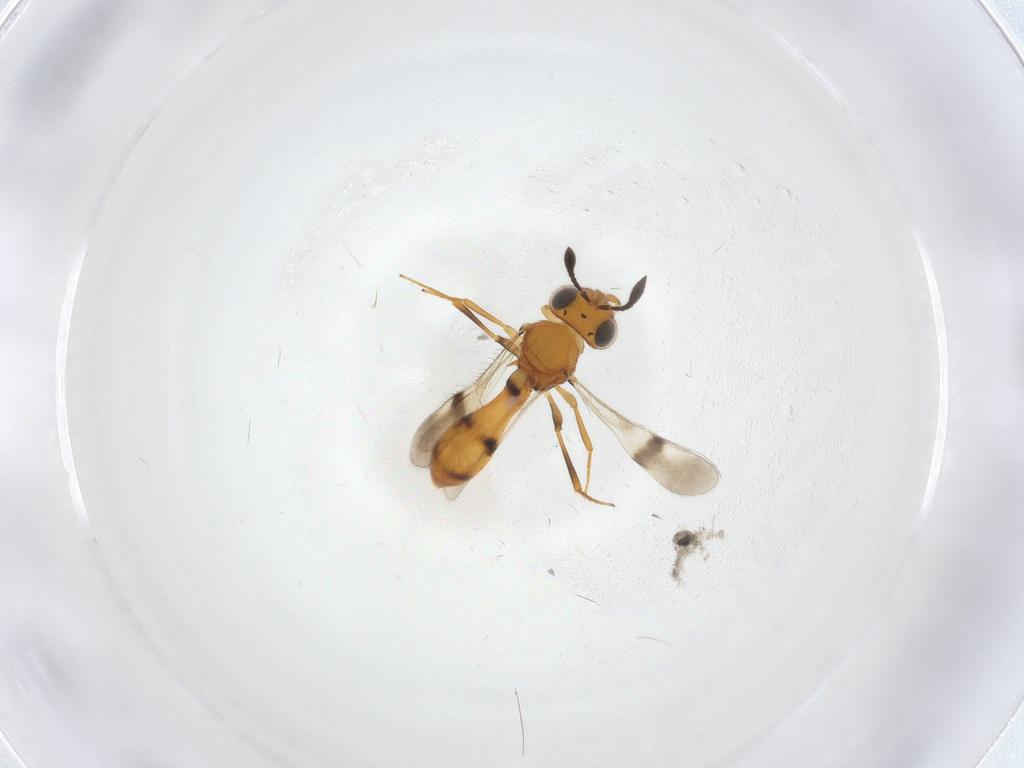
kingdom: Animalia
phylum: Arthropoda
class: Insecta
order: Hymenoptera
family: Scelionidae
